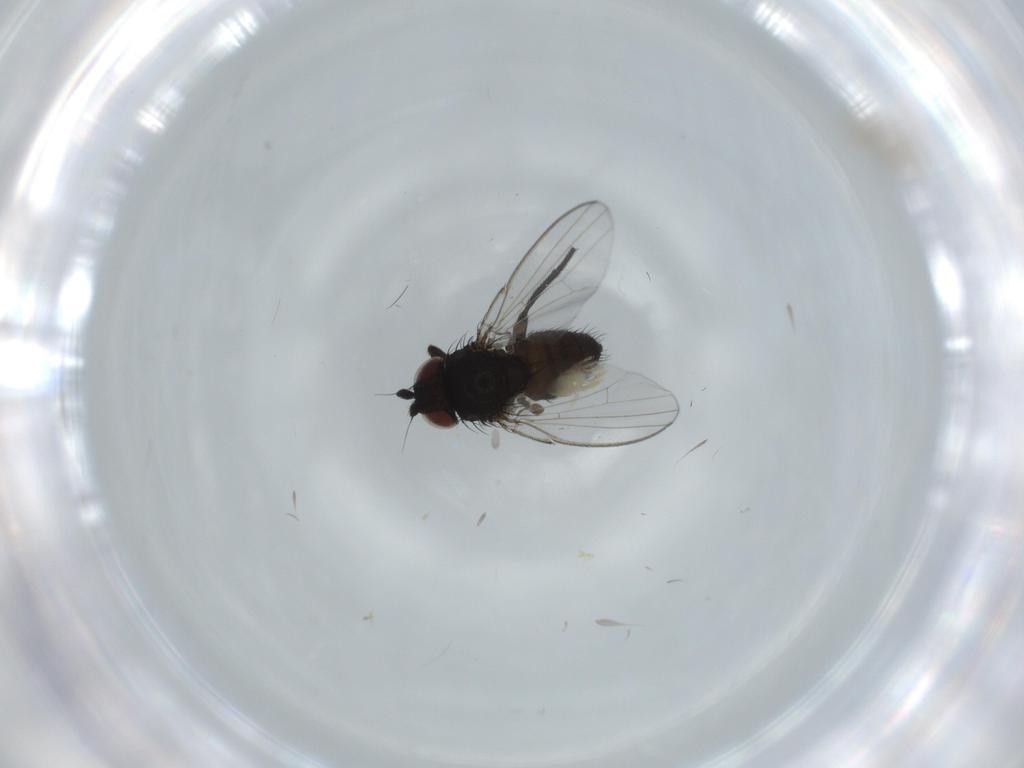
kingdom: Animalia
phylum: Arthropoda
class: Insecta
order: Diptera
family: Milichiidae
